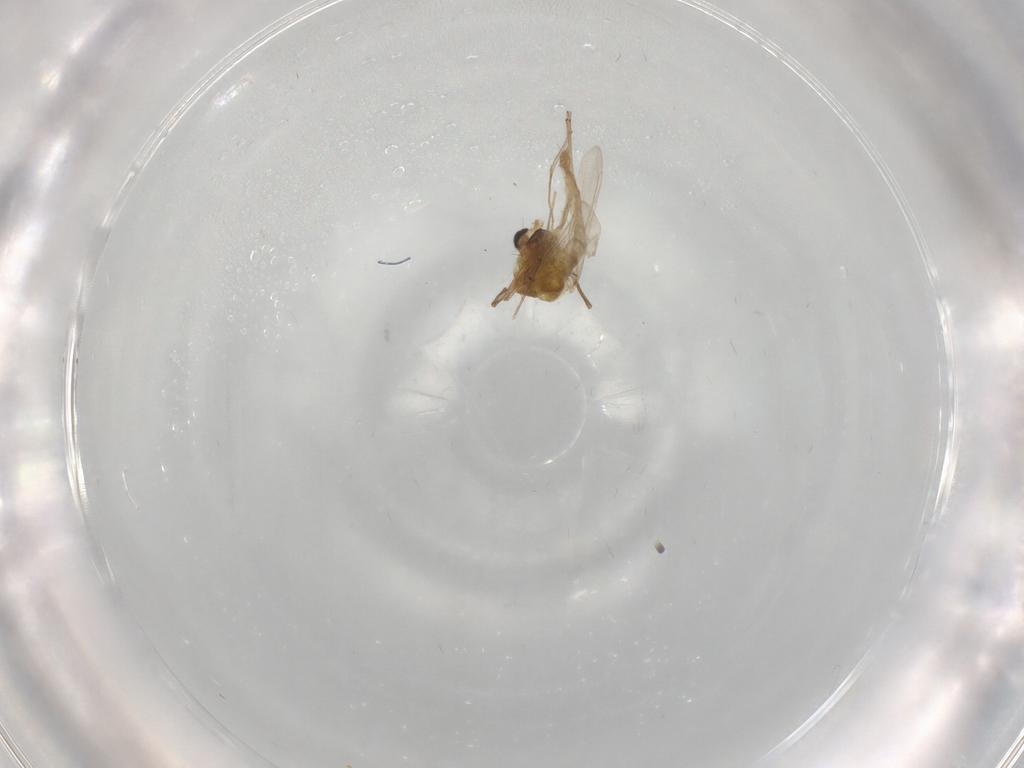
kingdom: Animalia
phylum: Arthropoda
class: Insecta
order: Diptera
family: Chironomidae
